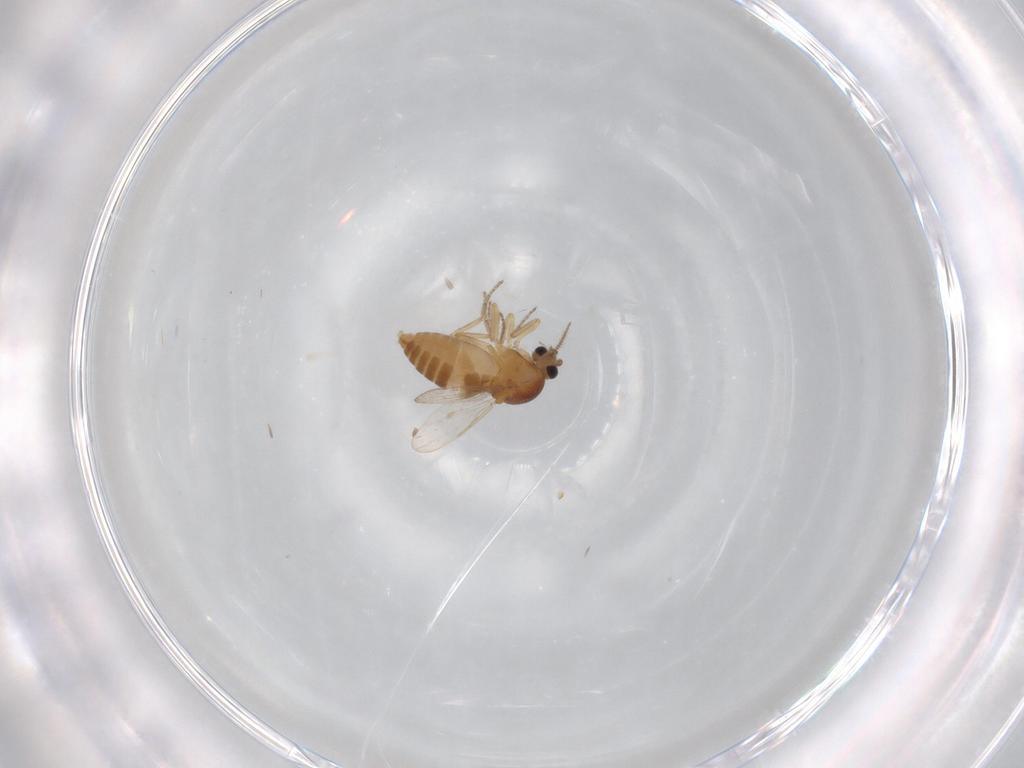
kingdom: Animalia
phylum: Arthropoda
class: Insecta
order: Diptera
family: Ceratopogonidae
